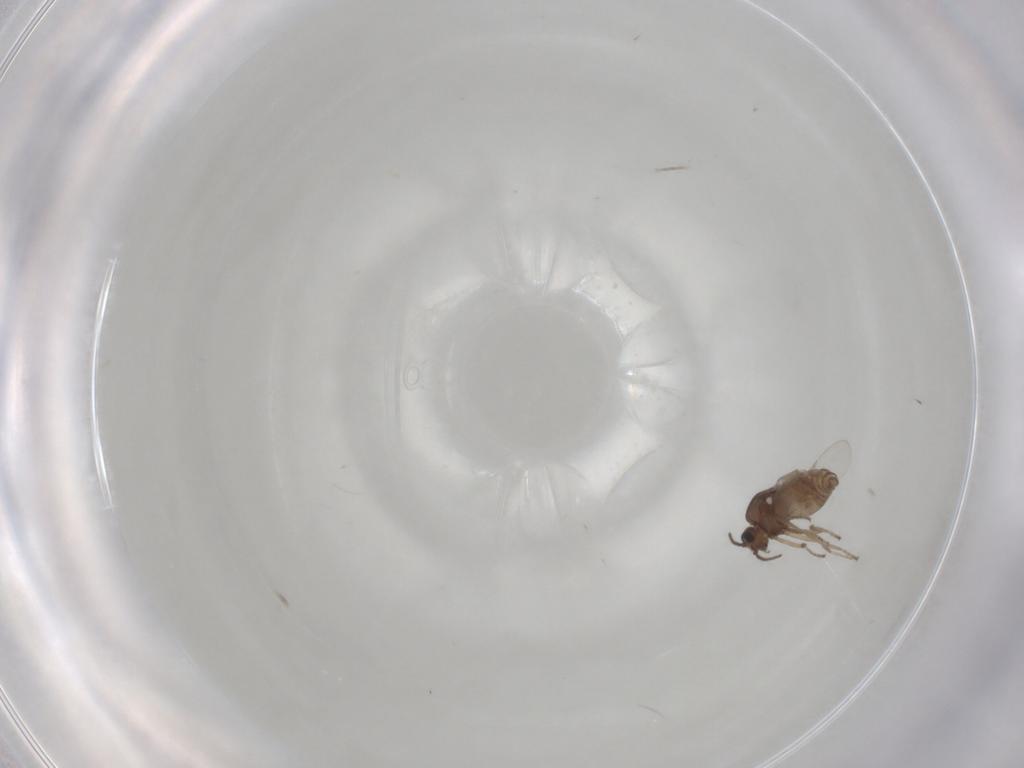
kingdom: Animalia
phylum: Arthropoda
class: Insecta
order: Diptera
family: Ceratopogonidae
